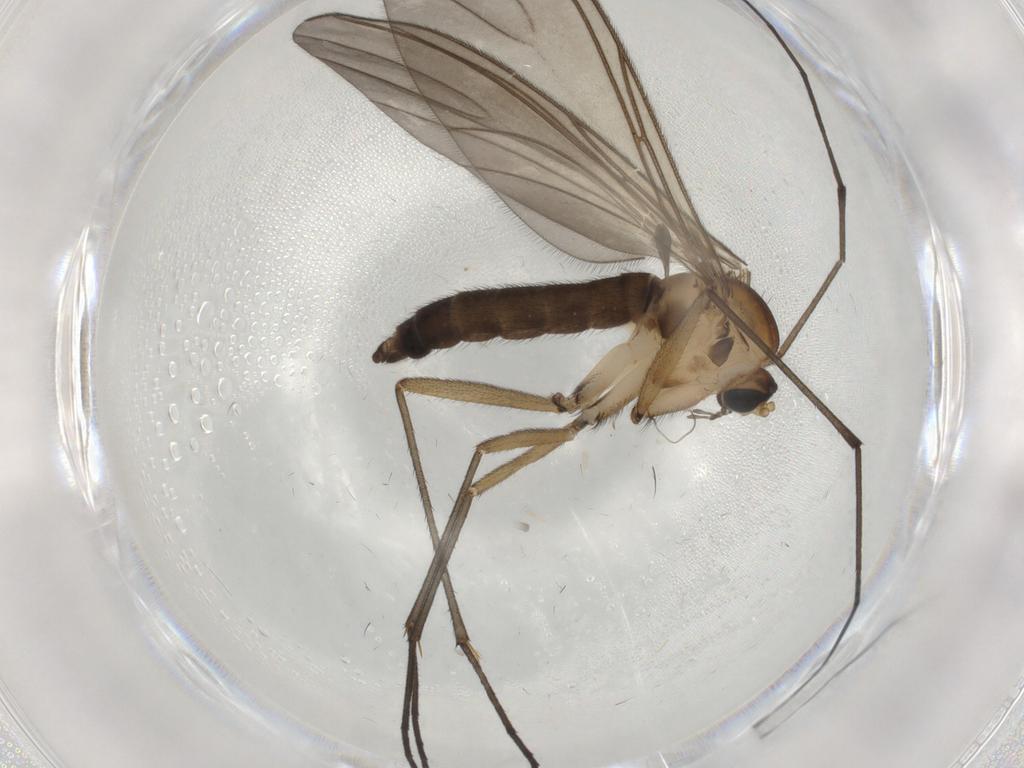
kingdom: Animalia
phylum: Arthropoda
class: Insecta
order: Diptera
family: Sciaridae
